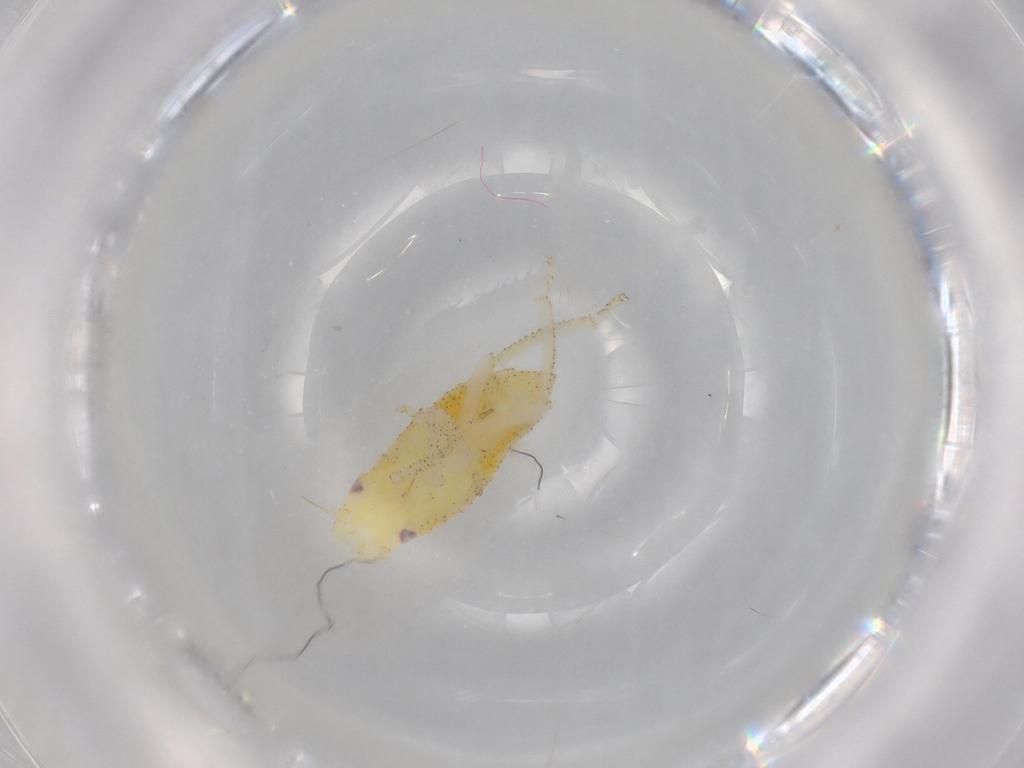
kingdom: Animalia
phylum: Arthropoda
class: Insecta
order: Hemiptera
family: Cicadellidae
